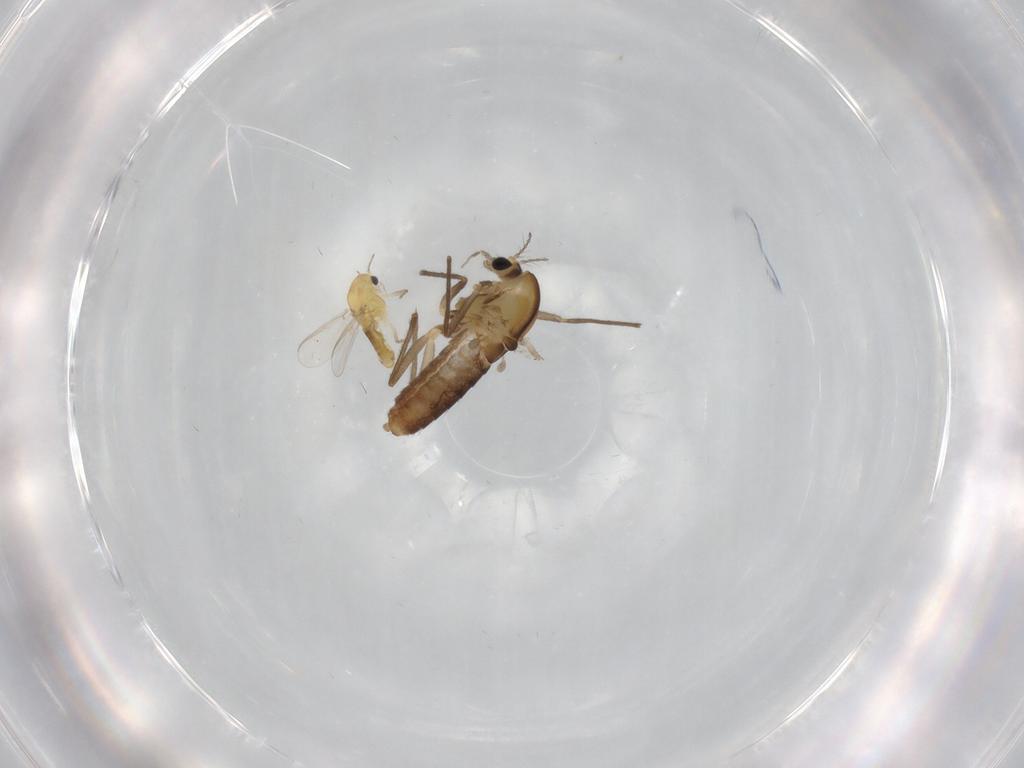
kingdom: Animalia
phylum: Arthropoda
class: Insecta
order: Diptera
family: Chironomidae
